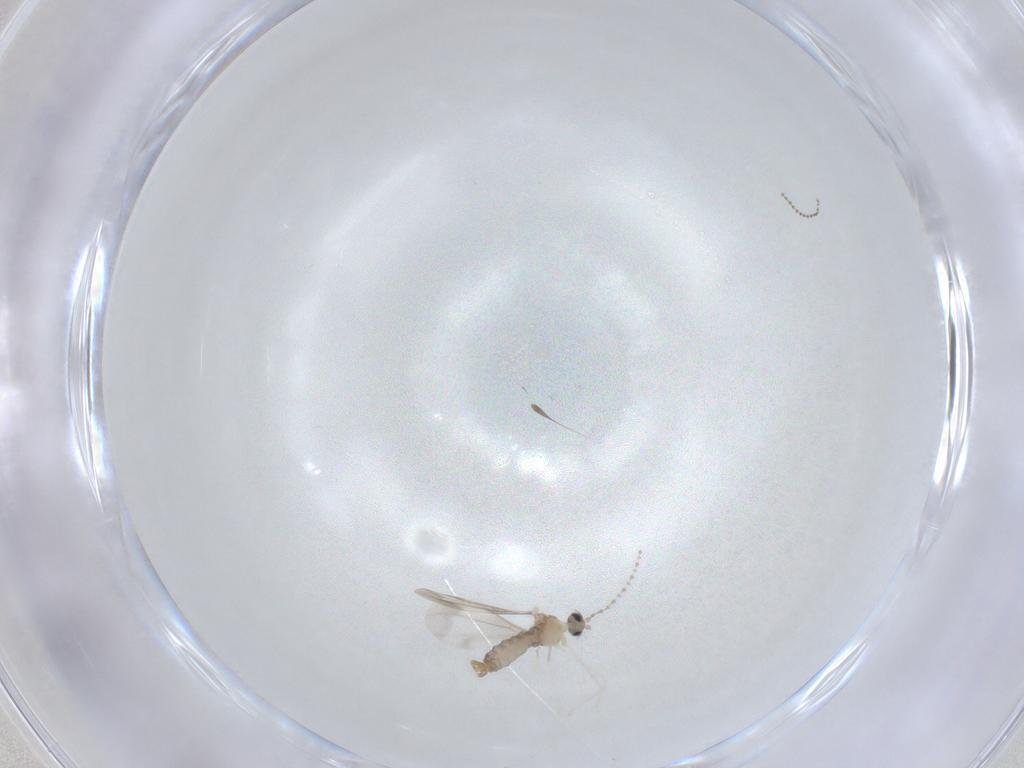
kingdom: Animalia
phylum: Arthropoda
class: Insecta
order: Diptera
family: Cecidomyiidae
